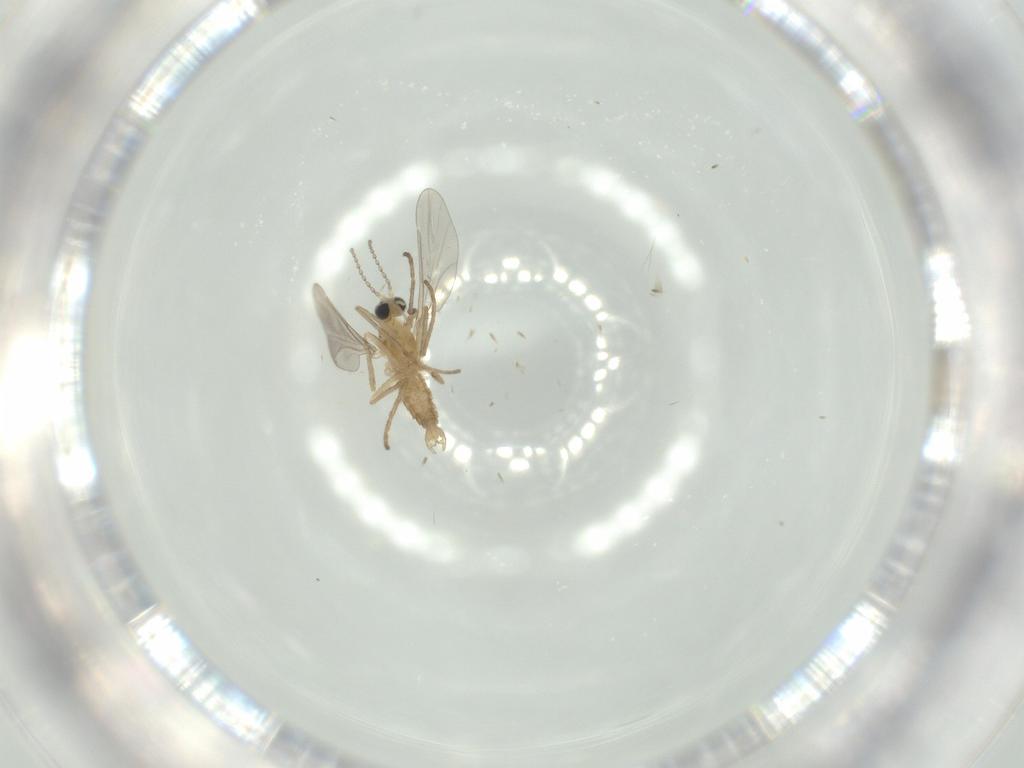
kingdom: Animalia
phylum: Arthropoda
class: Insecta
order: Diptera
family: Cecidomyiidae
